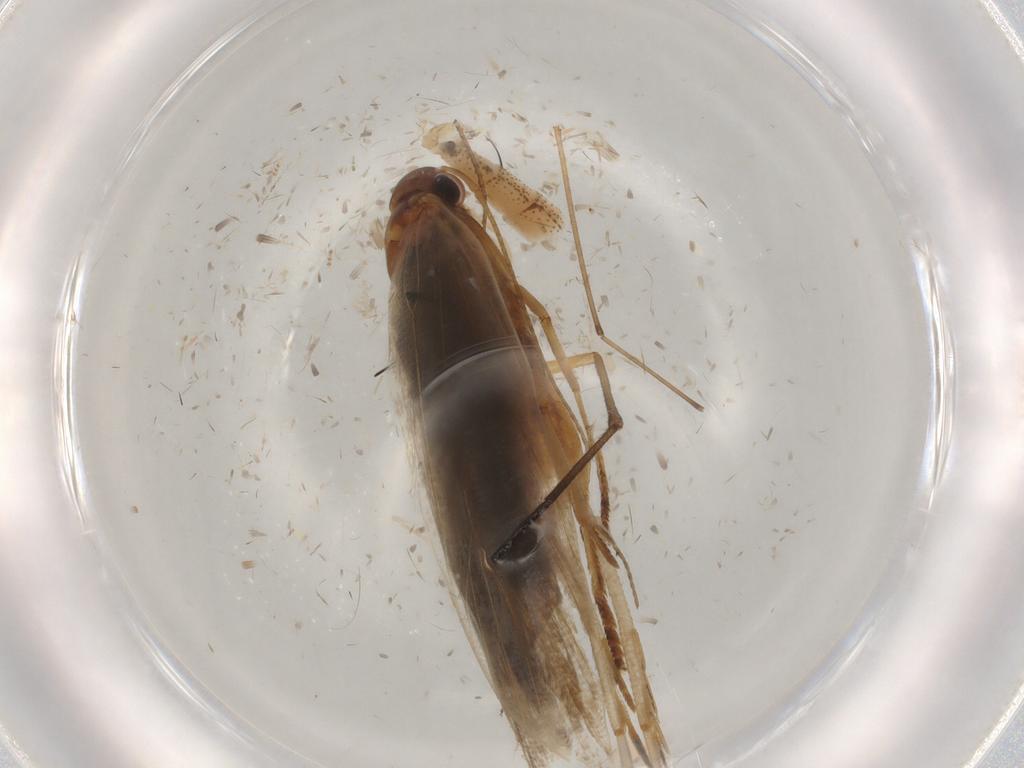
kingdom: Animalia
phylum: Arthropoda
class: Insecta
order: Lepidoptera
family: Gelechiidae
